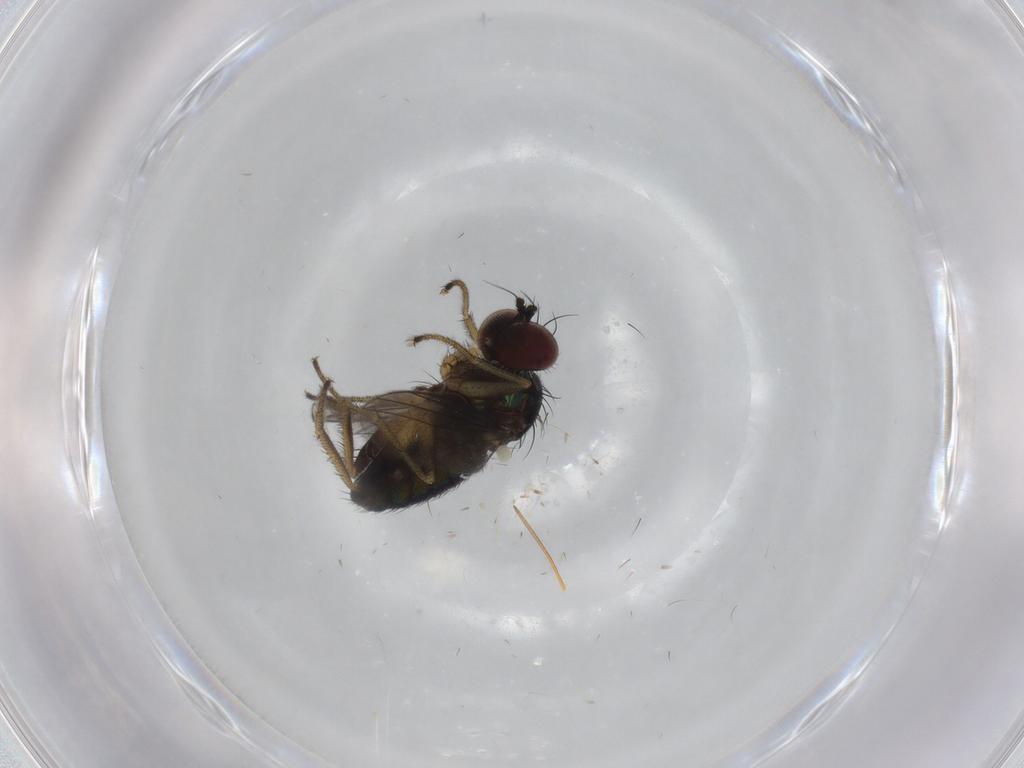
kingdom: Animalia
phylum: Arthropoda
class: Insecta
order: Diptera
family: Dolichopodidae
